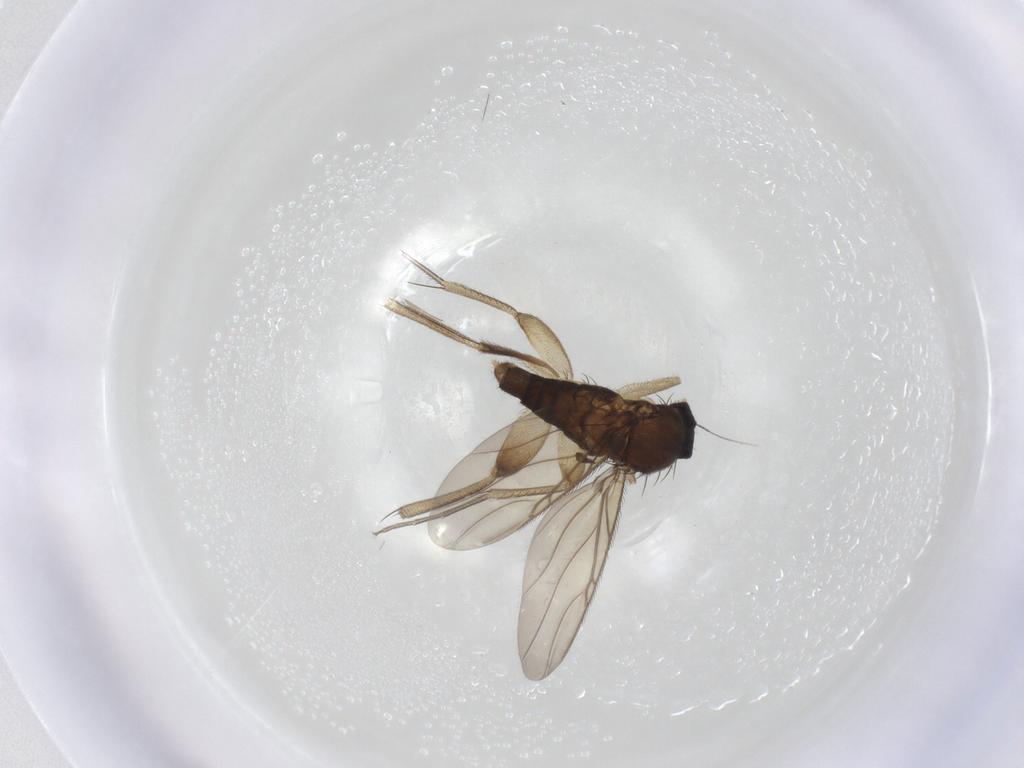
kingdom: Animalia
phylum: Arthropoda
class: Insecta
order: Diptera
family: Phoridae
